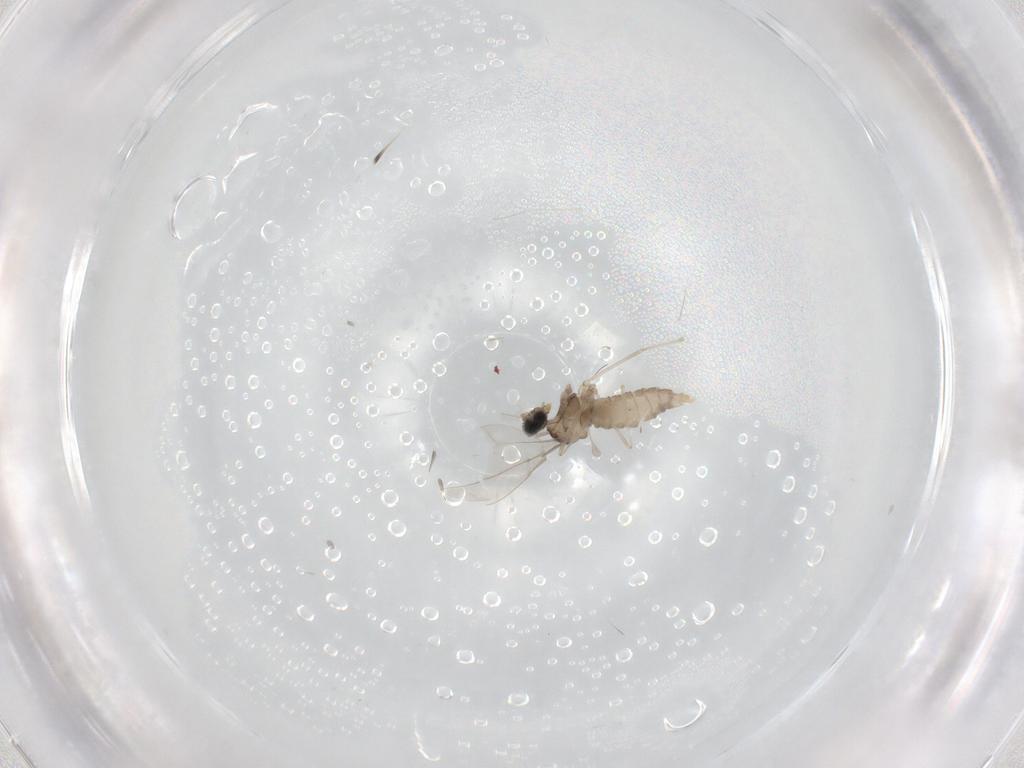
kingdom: Animalia
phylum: Arthropoda
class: Insecta
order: Diptera
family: Cecidomyiidae
